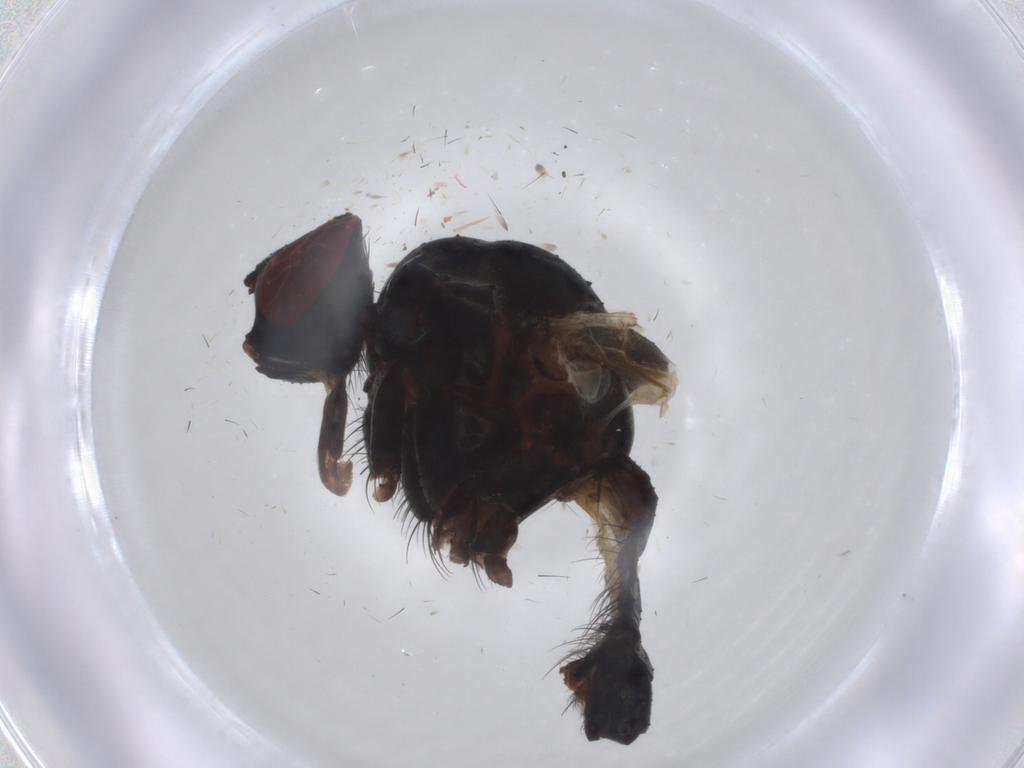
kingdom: Animalia
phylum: Arthropoda
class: Insecta
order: Diptera
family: Anthomyiidae
